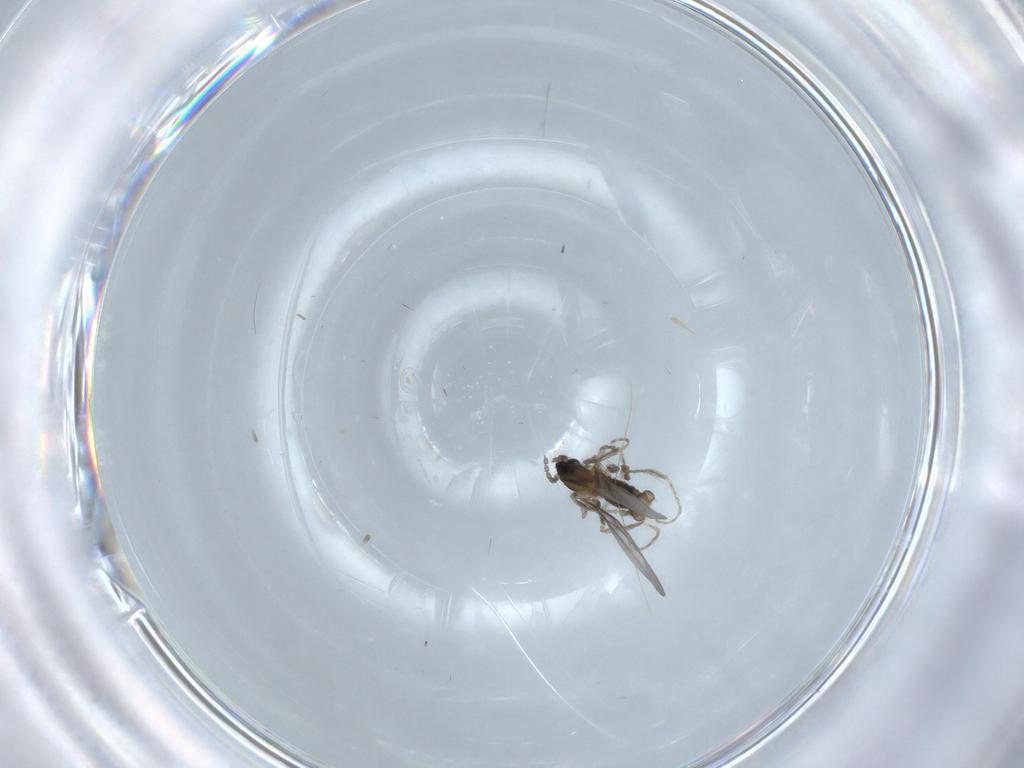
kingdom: Animalia
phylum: Arthropoda
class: Insecta
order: Diptera
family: Cecidomyiidae
